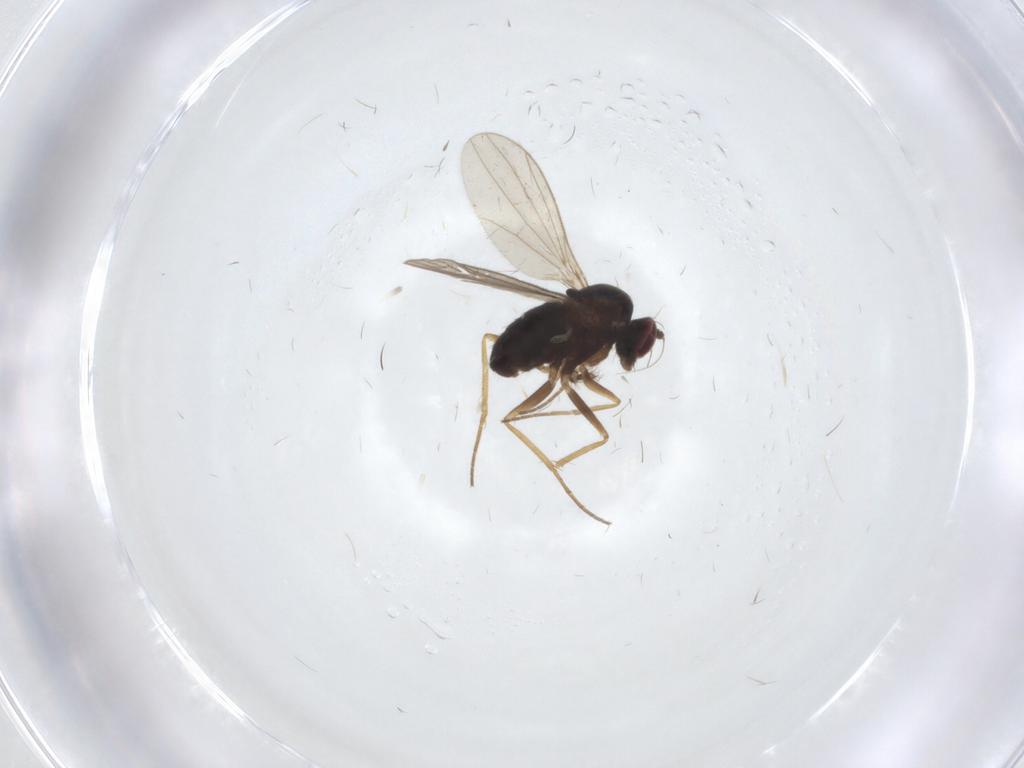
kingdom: Animalia
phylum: Arthropoda
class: Insecta
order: Diptera
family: Dolichopodidae
